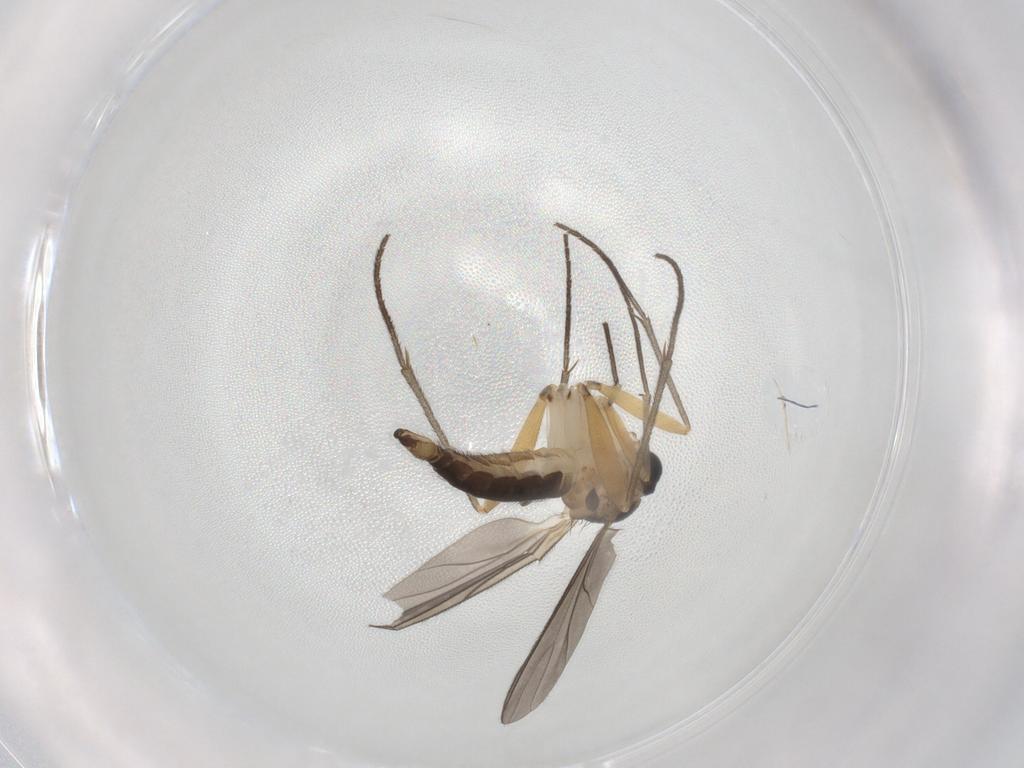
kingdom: Animalia
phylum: Arthropoda
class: Insecta
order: Diptera
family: Sciaridae
